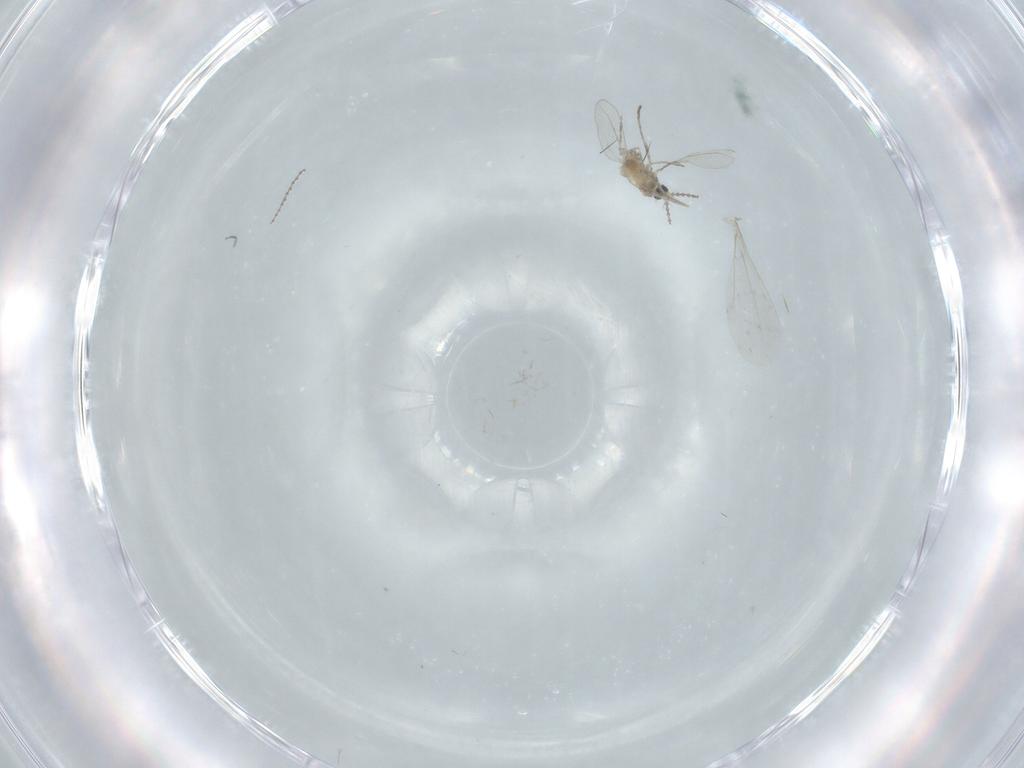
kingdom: Animalia
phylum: Arthropoda
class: Insecta
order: Diptera
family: Cecidomyiidae
